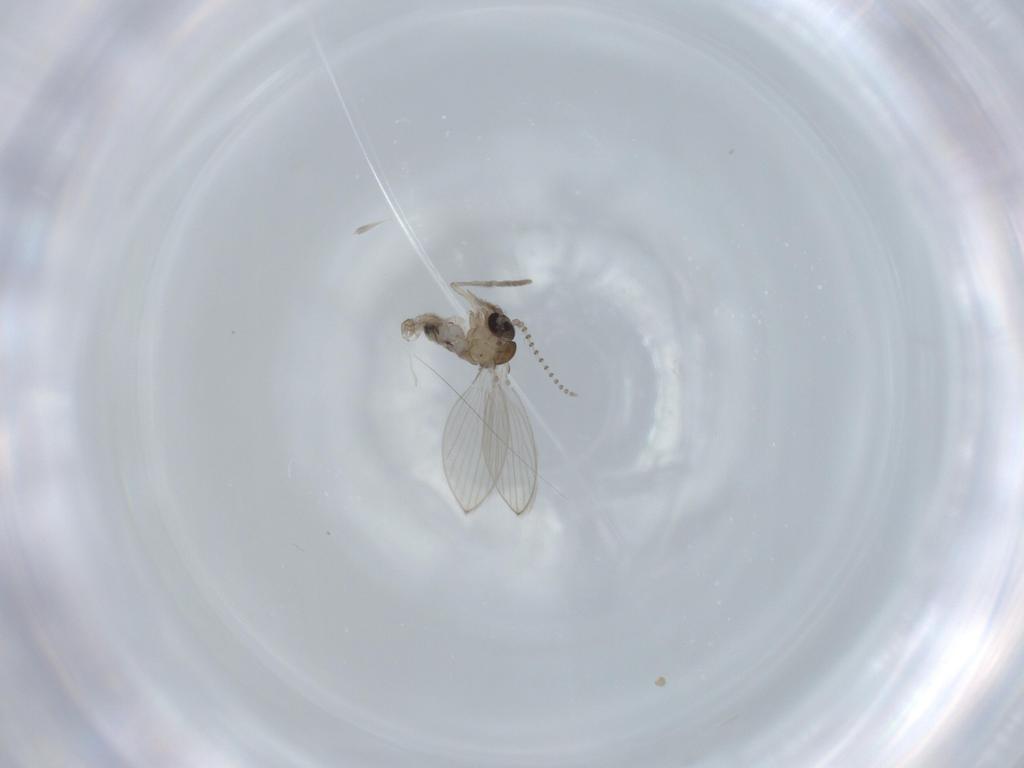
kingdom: Animalia
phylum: Arthropoda
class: Insecta
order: Diptera
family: Psychodidae
